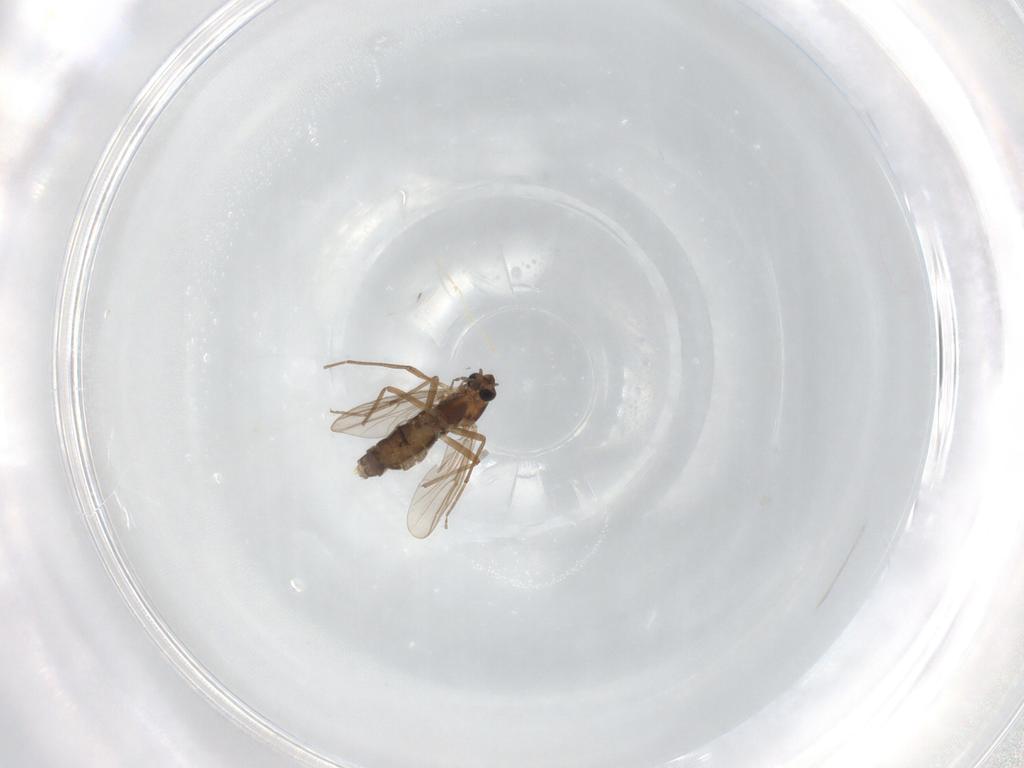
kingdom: Animalia
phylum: Arthropoda
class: Insecta
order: Diptera
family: Chironomidae
